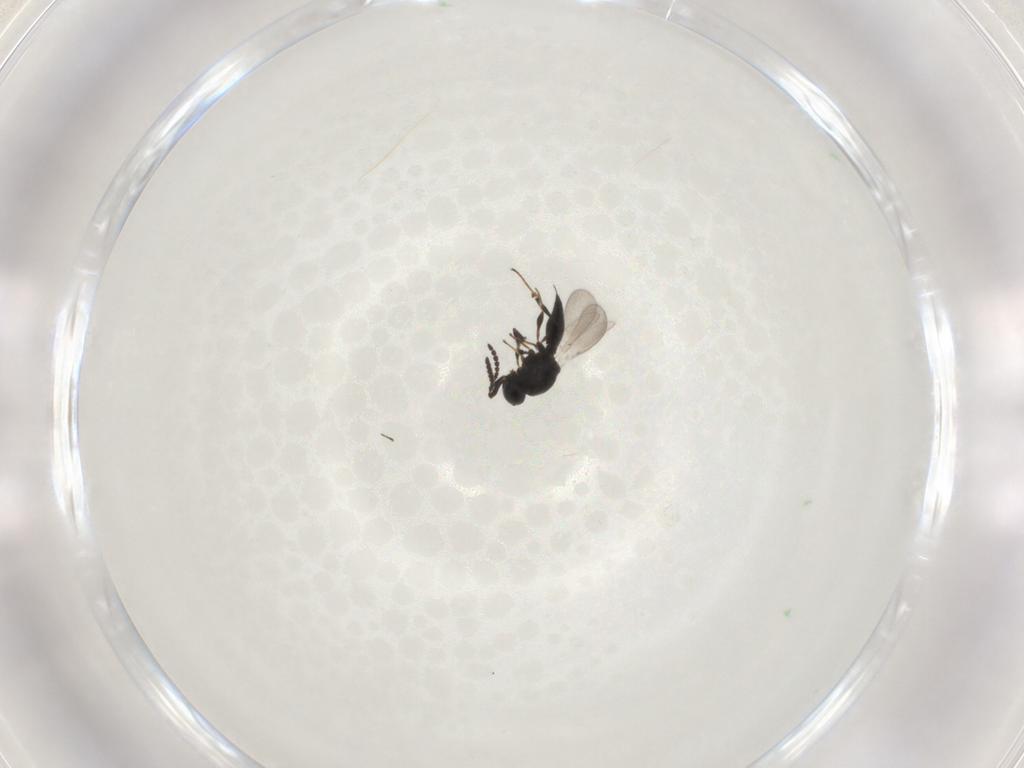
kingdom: Animalia
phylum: Arthropoda
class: Insecta
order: Hymenoptera
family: Platygastridae
